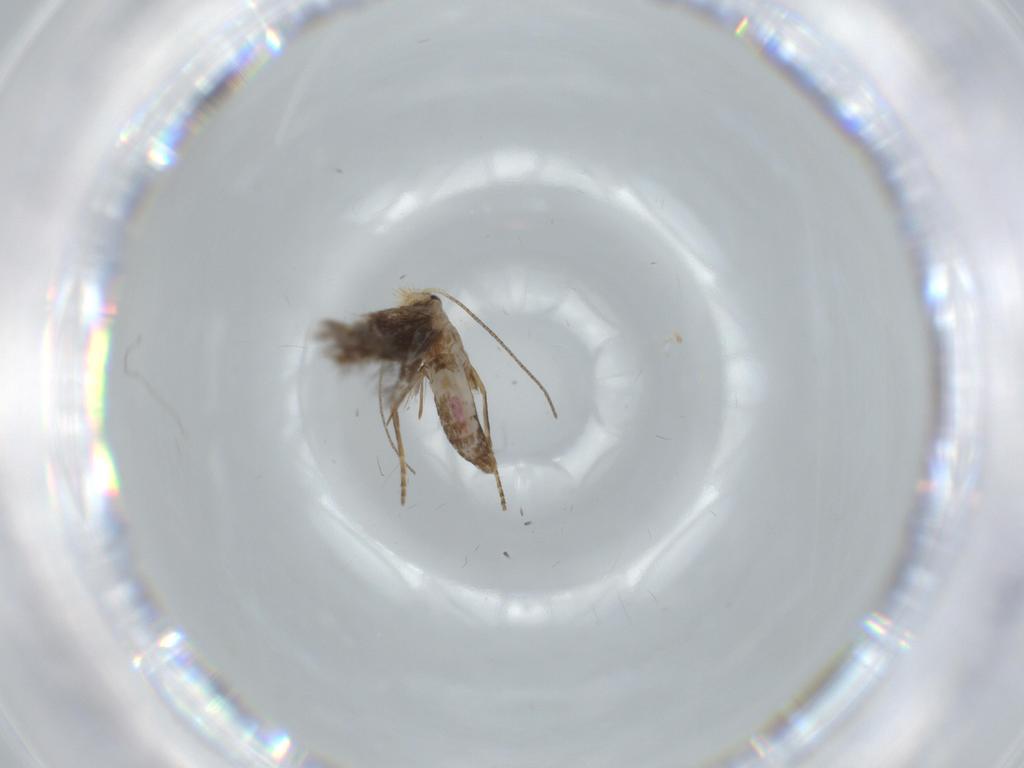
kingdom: Animalia
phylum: Arthropoda
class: Insecta
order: Lepidoptera
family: Bucculatricidae
